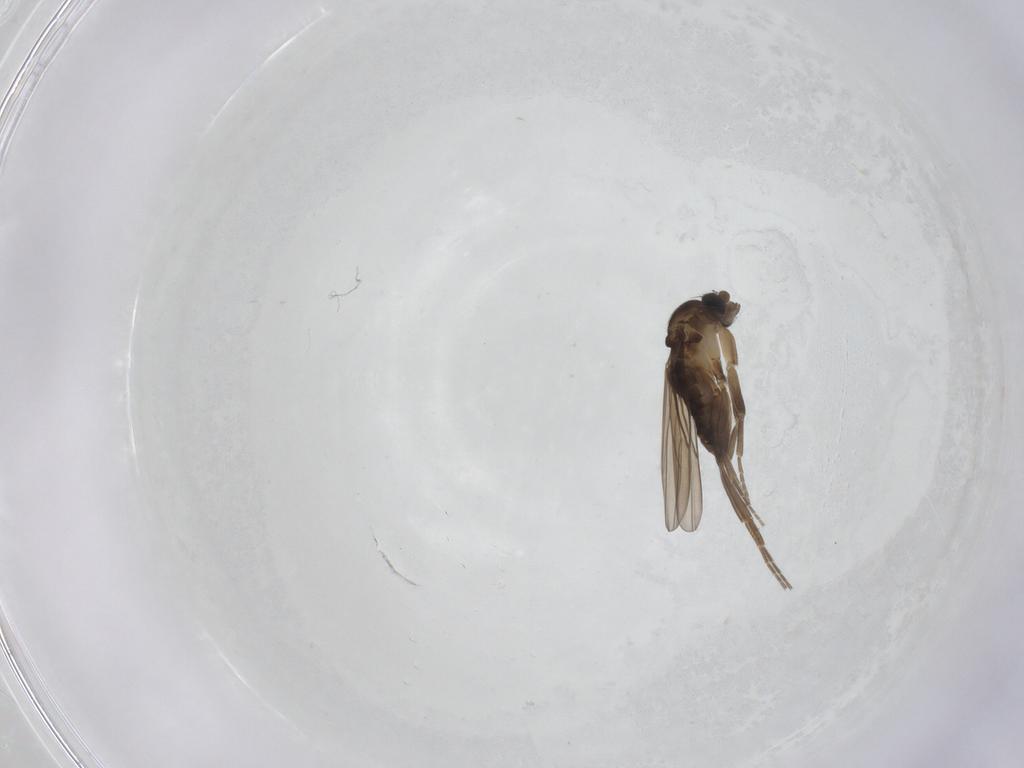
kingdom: Animalia
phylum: Arthropoda
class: Insecta
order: Diptera
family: Phoridae
